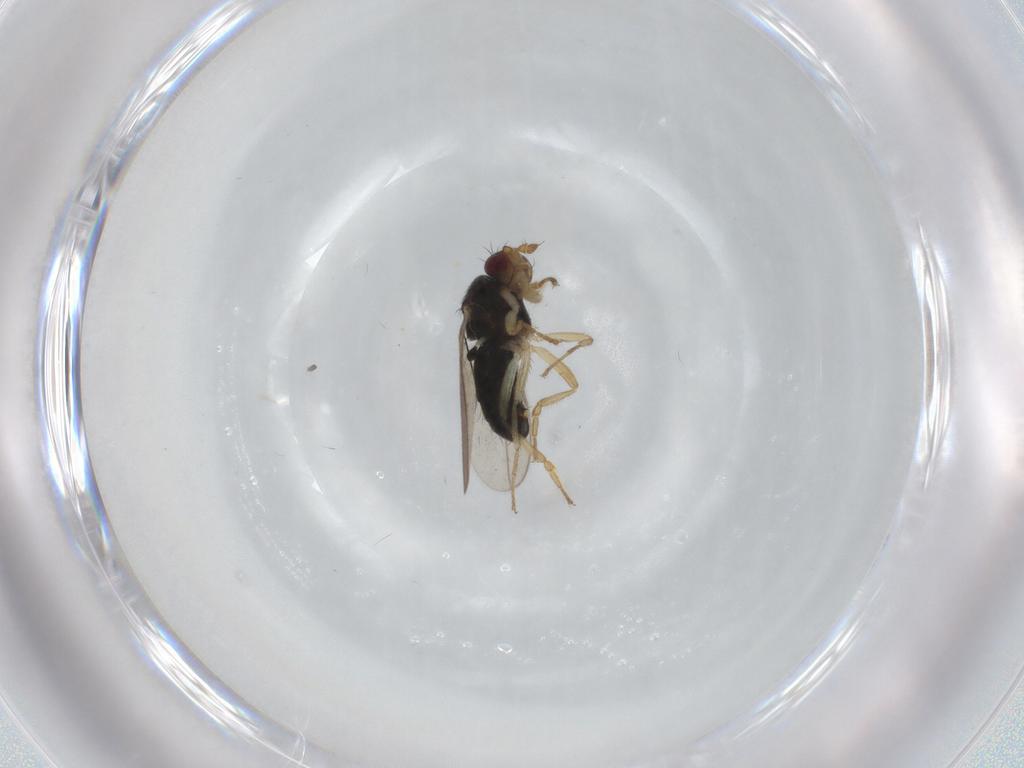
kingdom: Animalia
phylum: Arthropoda
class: Insecta
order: Diptera
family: Sphaeroceridae
